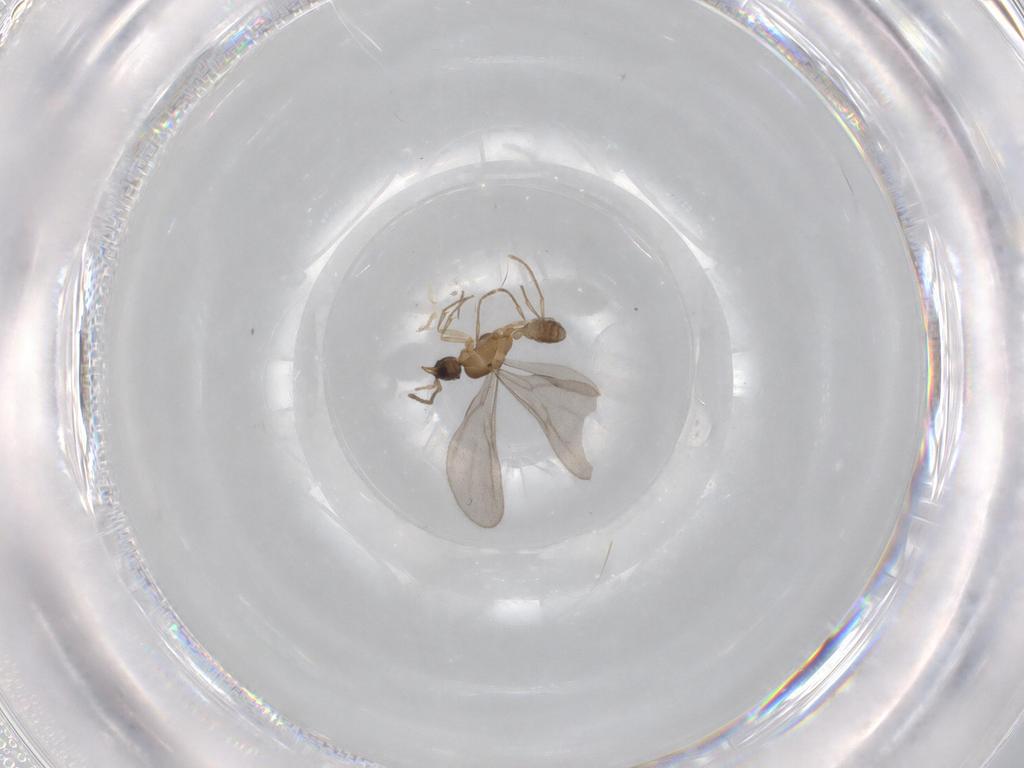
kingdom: Animalia
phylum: Arthropoda
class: Insecta
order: Hymenoptera
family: Formicidae
